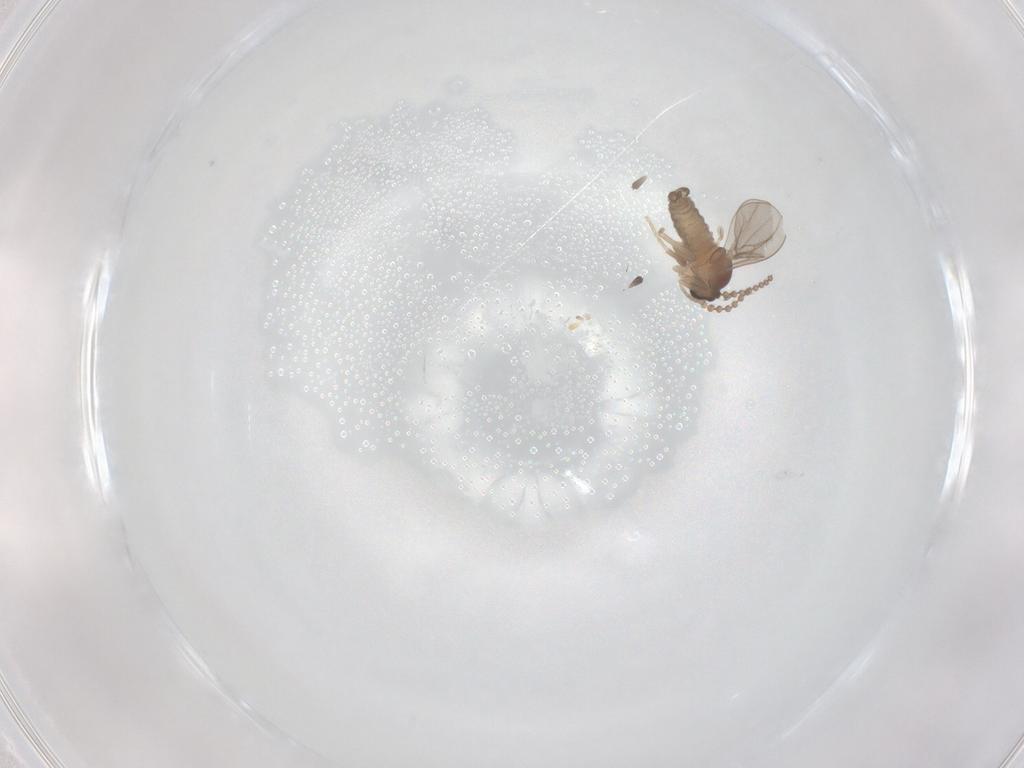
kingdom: Animalia
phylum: Arthropoda
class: Insecta
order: Diptera
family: Cecidomyiidae
